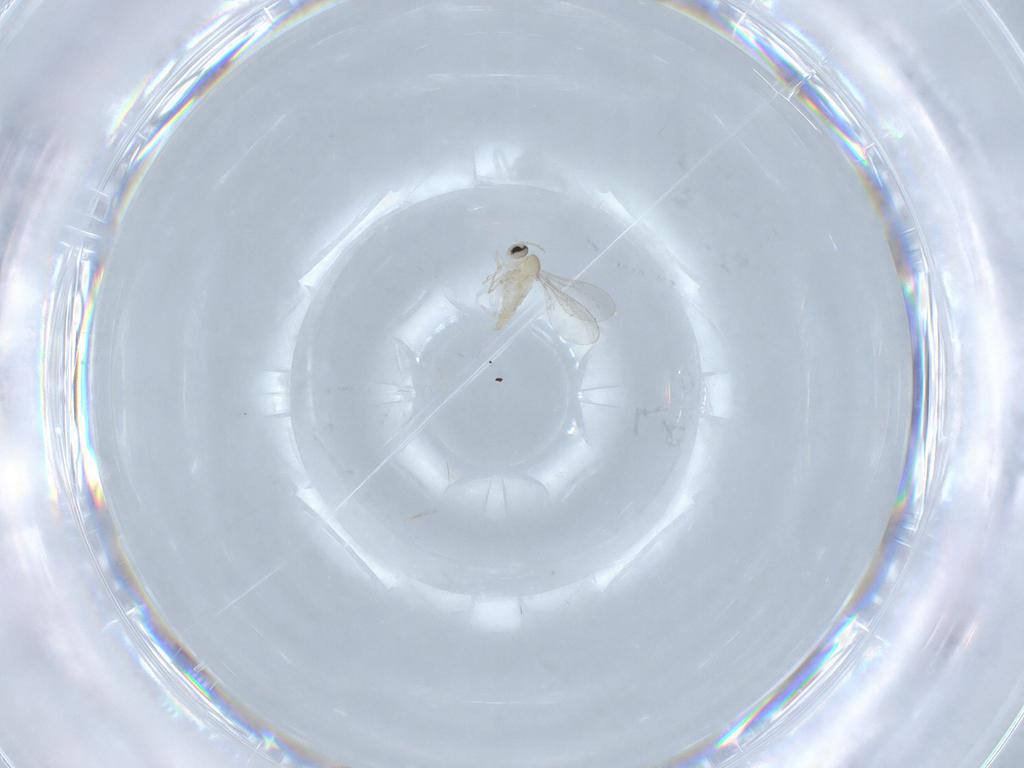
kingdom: Animalia
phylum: Arthropoda
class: Insecta
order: Diptera
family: Cecidomyiidae
